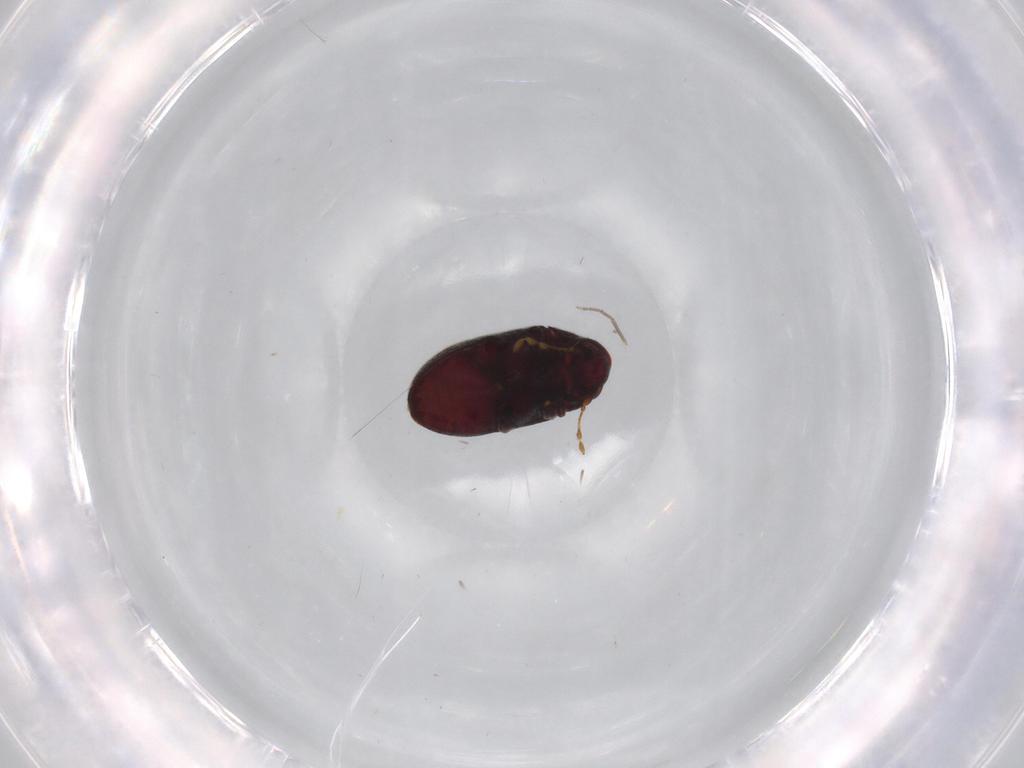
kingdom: Animalia
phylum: Arthropoda
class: Insecta
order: Coleoptera
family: Ptinidae
